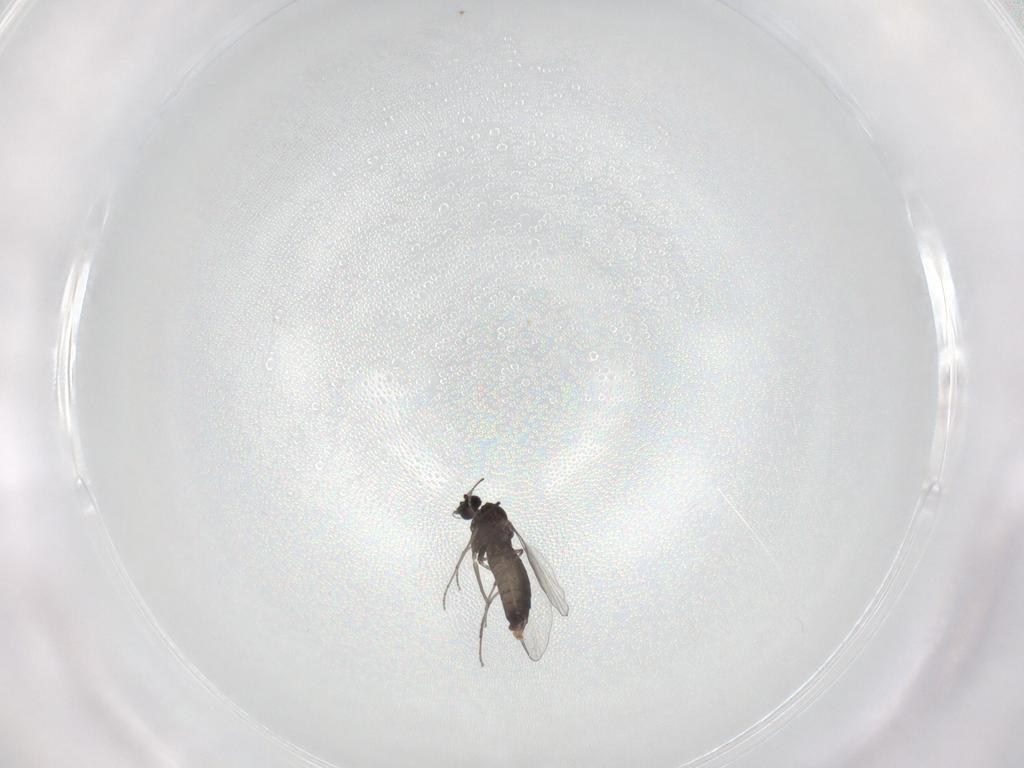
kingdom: Animalia
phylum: Arthropoda
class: Insecta
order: Diptera
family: Chironomidae
